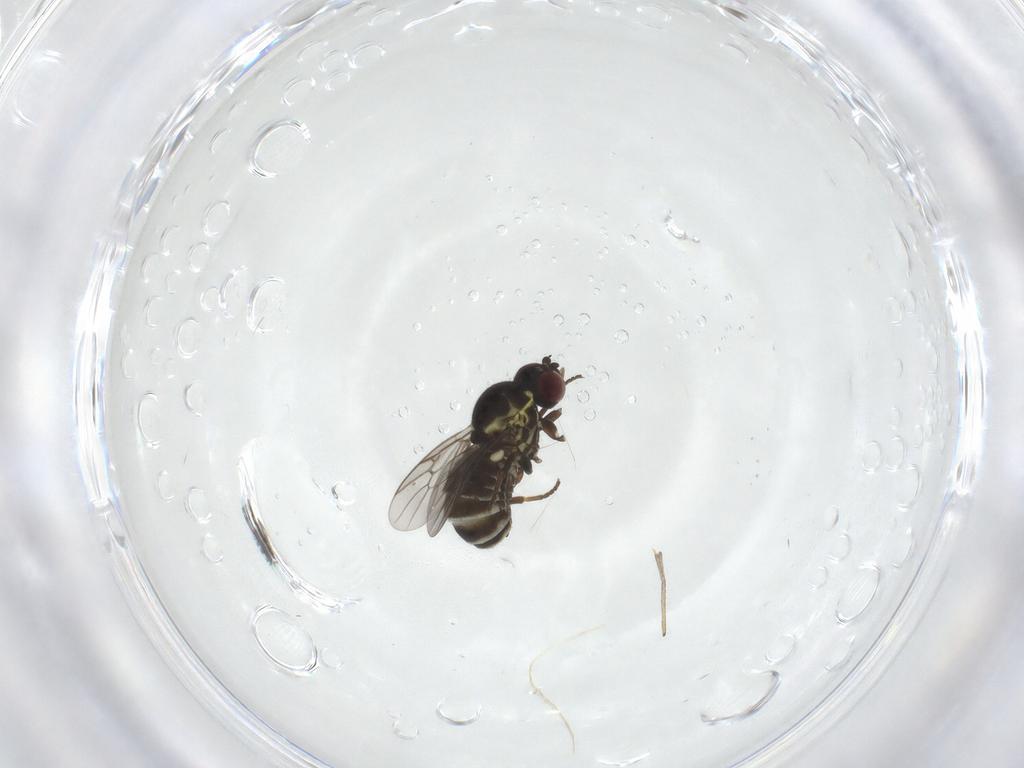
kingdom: Animalia
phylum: Arthropoda
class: Insecta
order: Diptera
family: Bombyliidae
